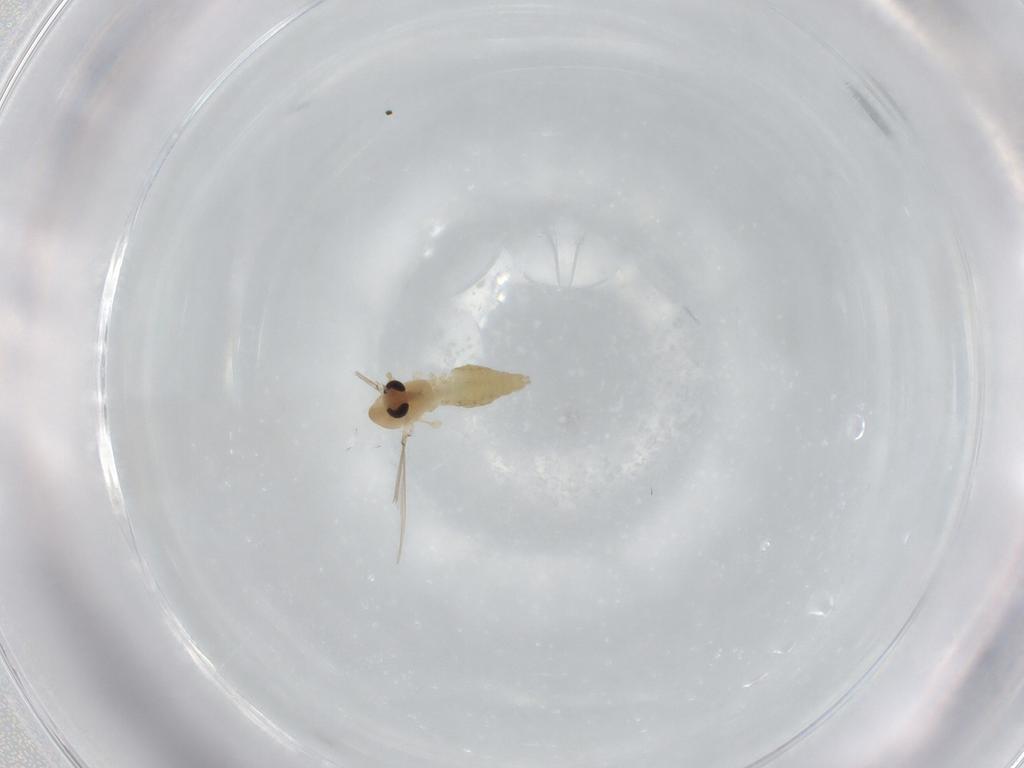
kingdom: Animalia
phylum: Arthropoda
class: Insecta
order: Diptera
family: Chironomidae
